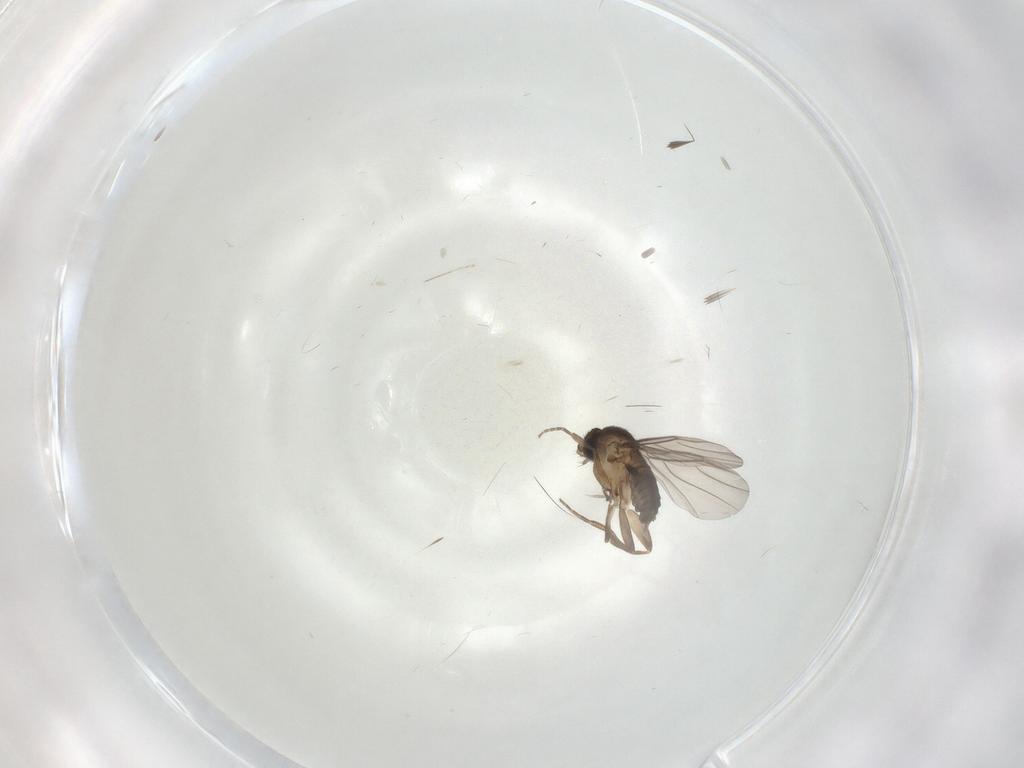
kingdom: Animalia
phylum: Arthropoda
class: Insecta
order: Diptera
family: Phoridae
